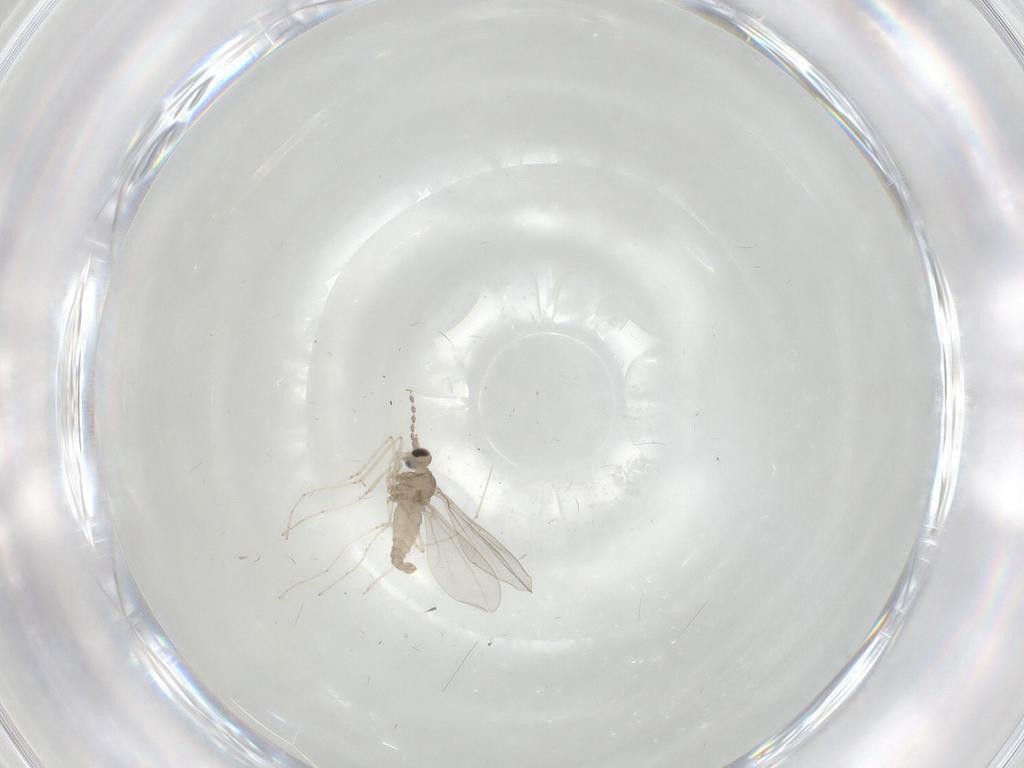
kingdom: Animalia
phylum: Arthropoda
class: Insecta
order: Diptera
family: Cecidomyiidae
